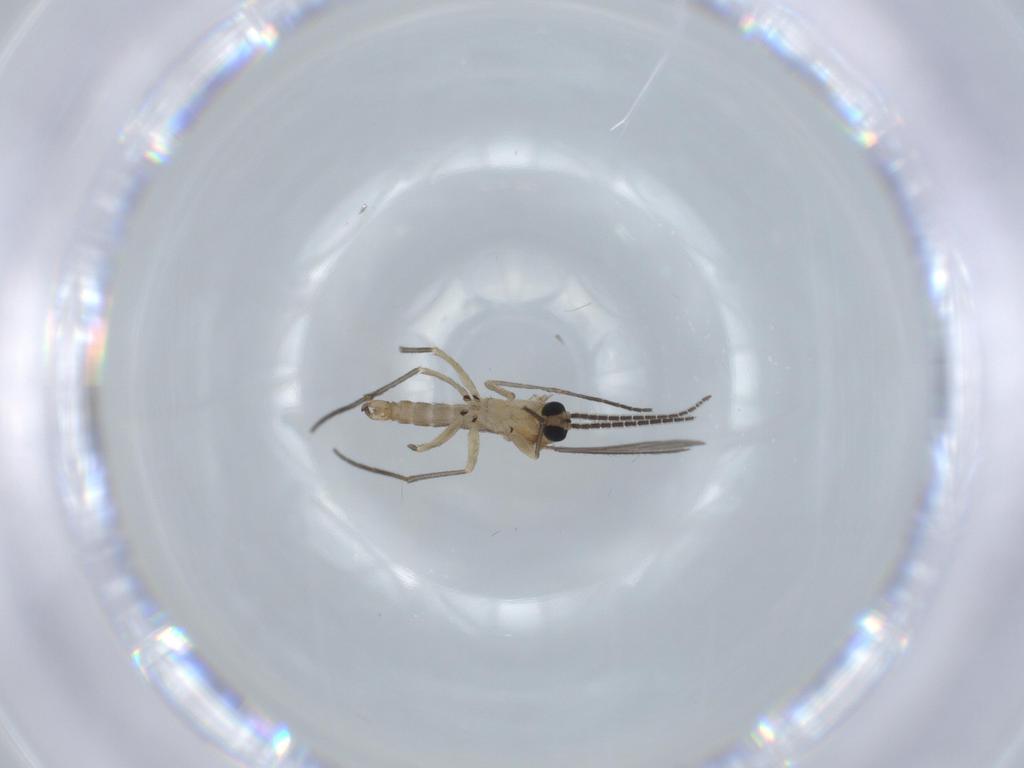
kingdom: Animalia
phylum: Arthropoda
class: Insecta
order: Diptera
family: Sciaridae
